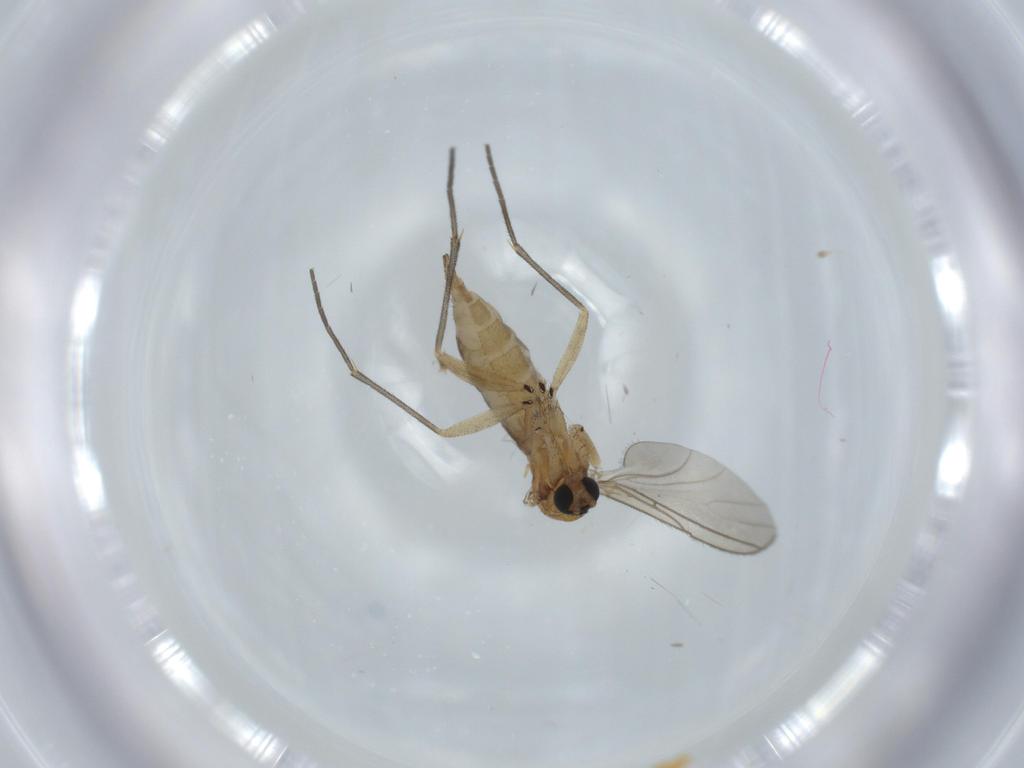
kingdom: Animalia
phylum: Arthropoda
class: Insecta
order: Diptera
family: Sciaridae
